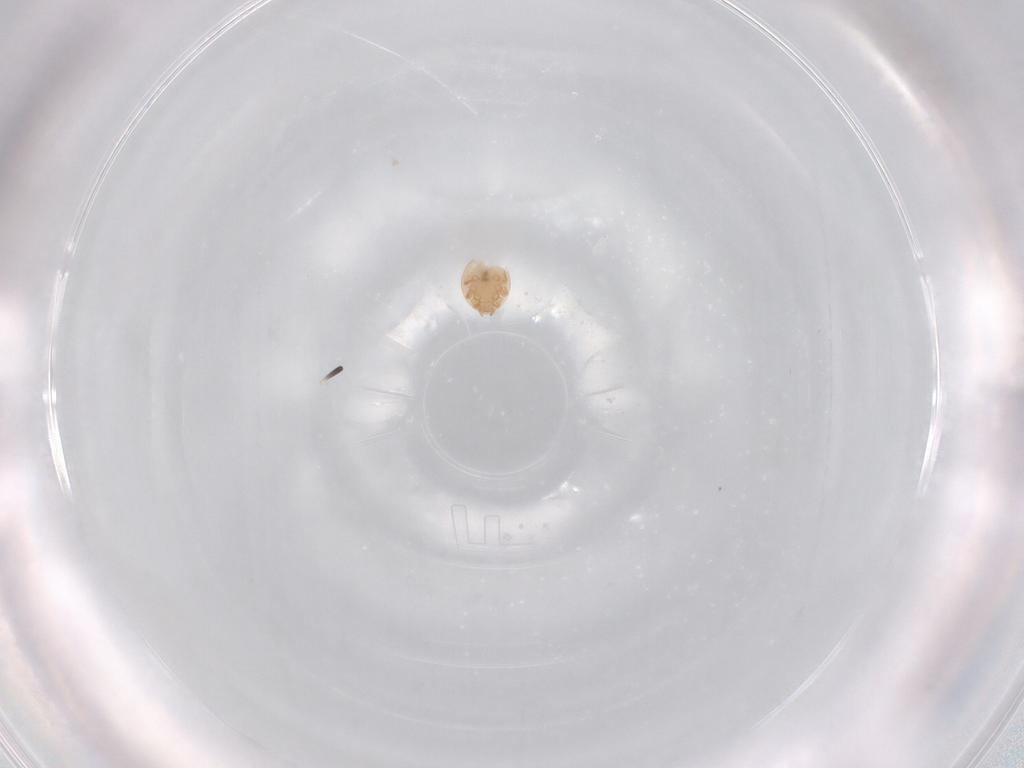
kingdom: Animalia
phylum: Arthropoda
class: Arachnida
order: Mesostigmata
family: Trematuridae
